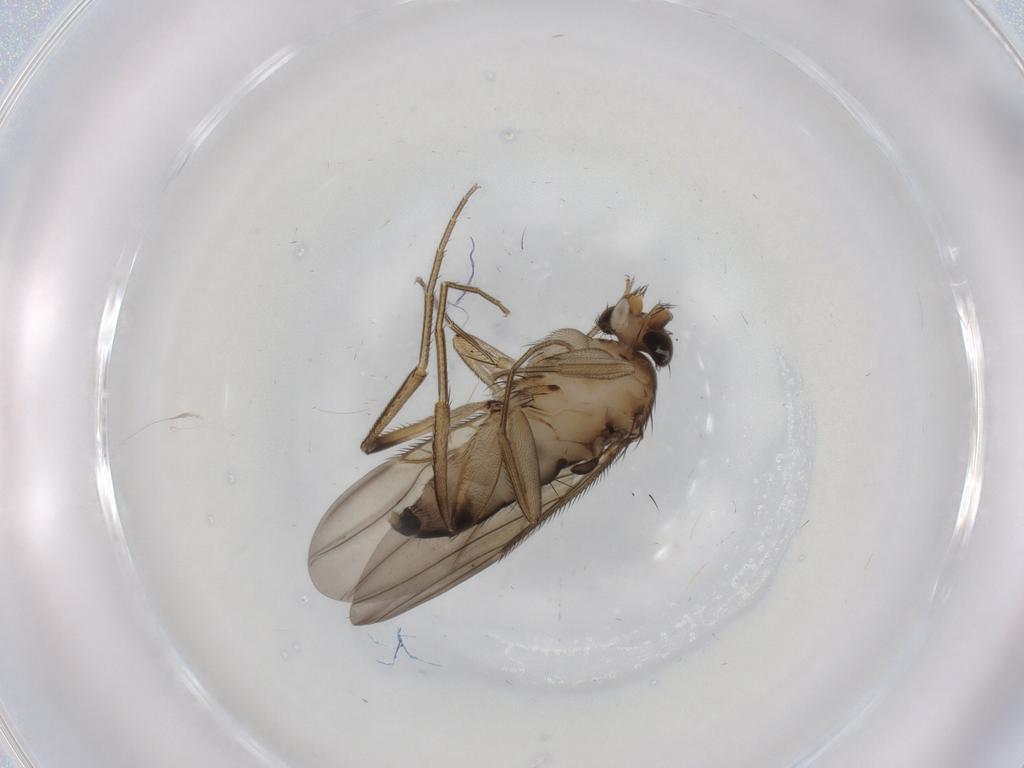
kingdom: Animalia
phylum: Arthropoda
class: Insecta
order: Diptera
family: Phoridae
